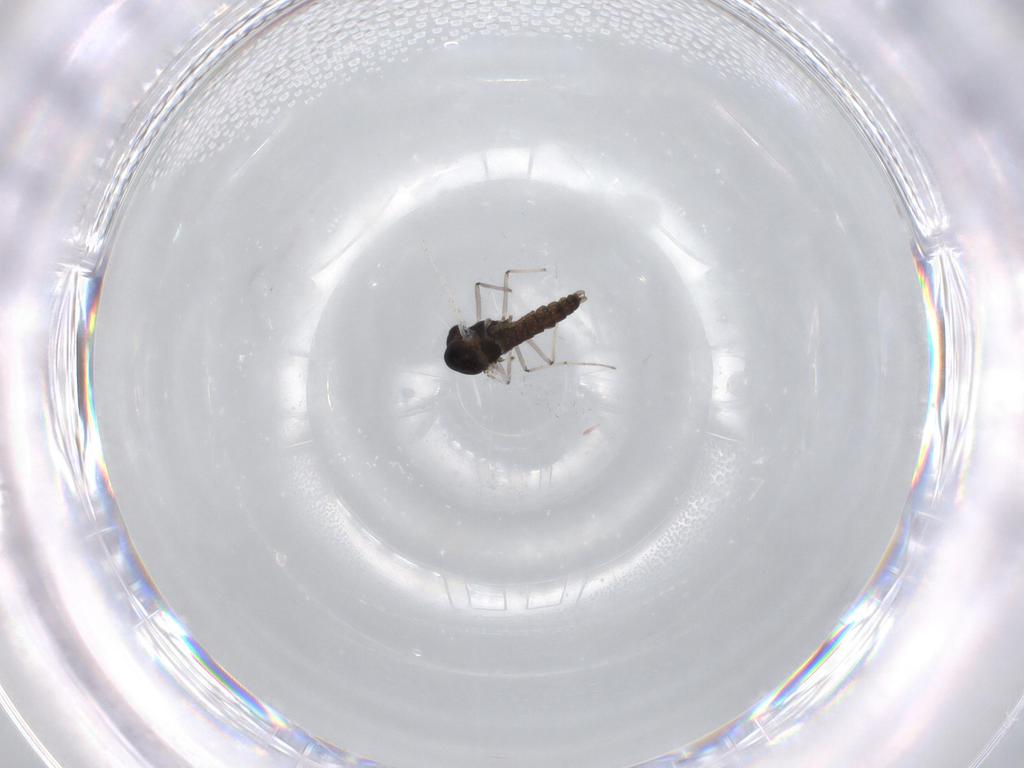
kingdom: Animalia
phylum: Arthropoda
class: Insecta
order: Diptera
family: Chironomidae
